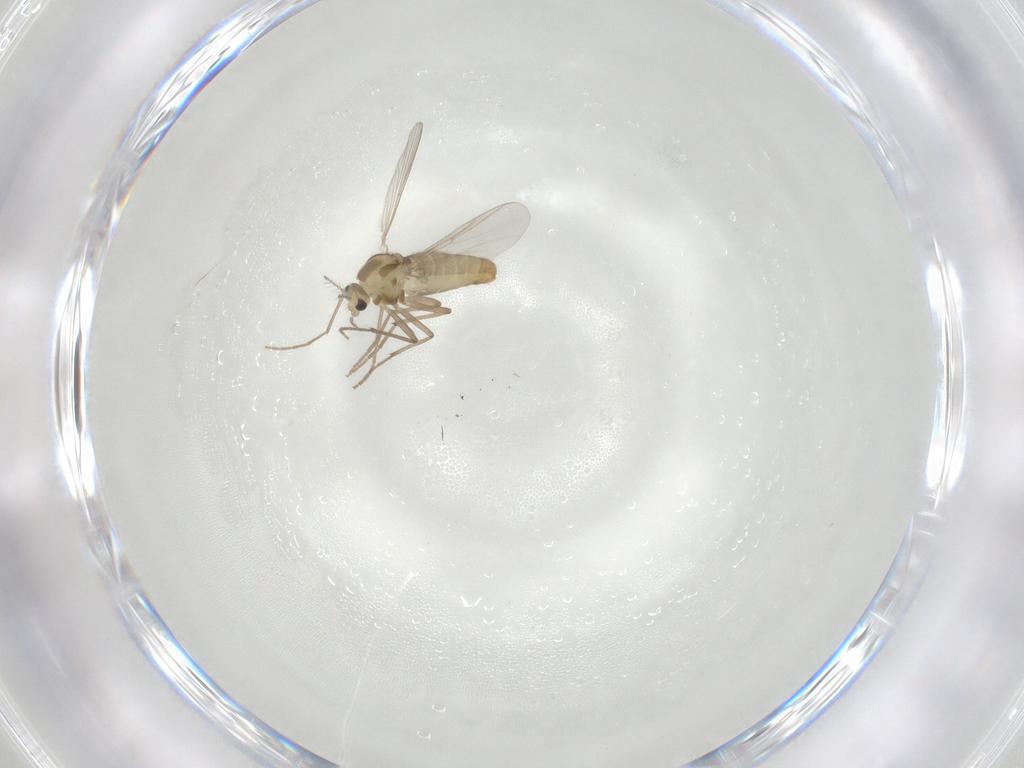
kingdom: Animalia
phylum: Arthropoda
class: Insecta
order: Diptera
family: Chironomidae
